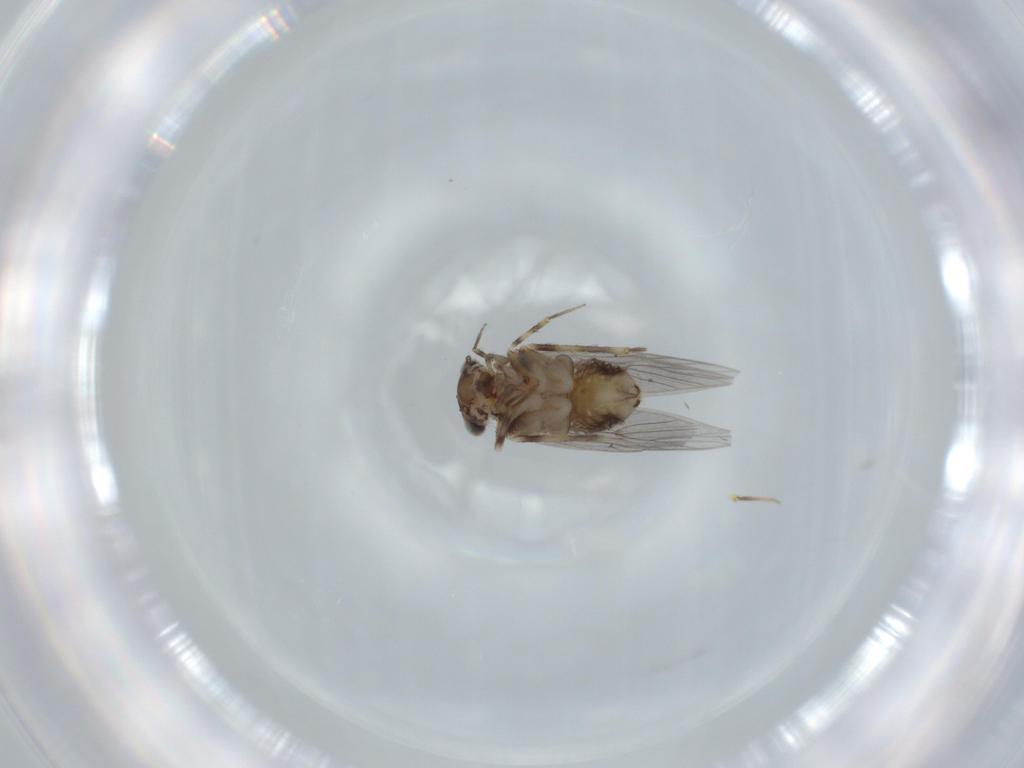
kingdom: Animalia
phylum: Arthropoda
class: Insecta
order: Psocodea
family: Lepidopsocidae
